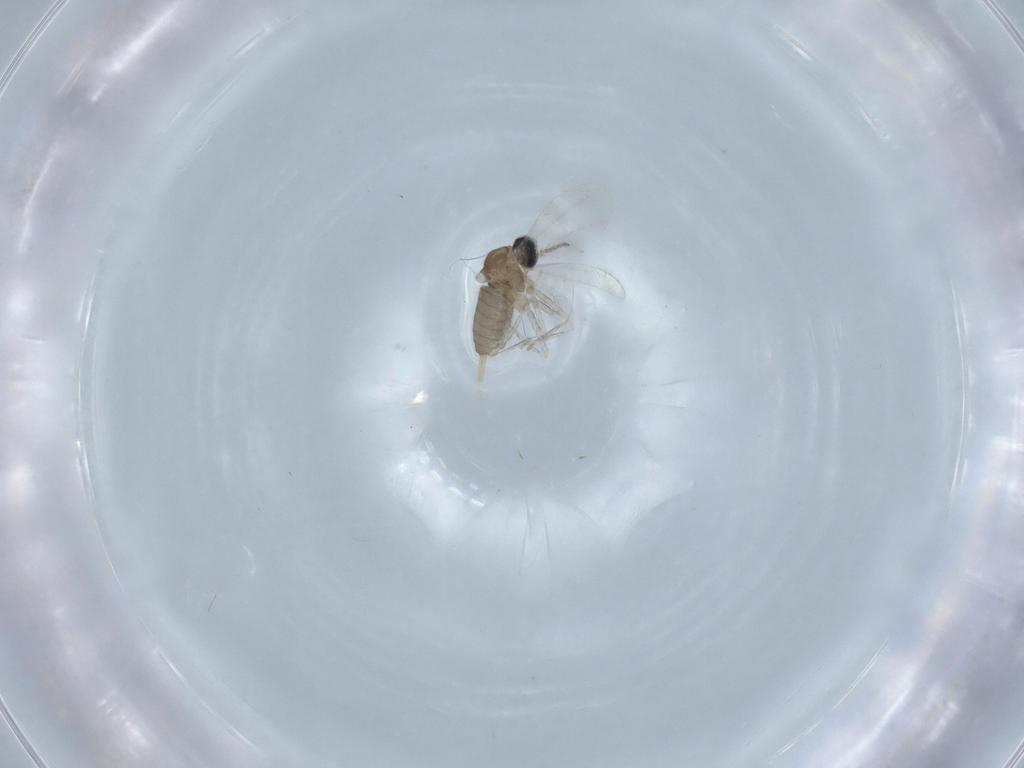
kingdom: Animalia
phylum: Arthropoda
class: Insecta
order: Diptera
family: Cecidomyiidae
